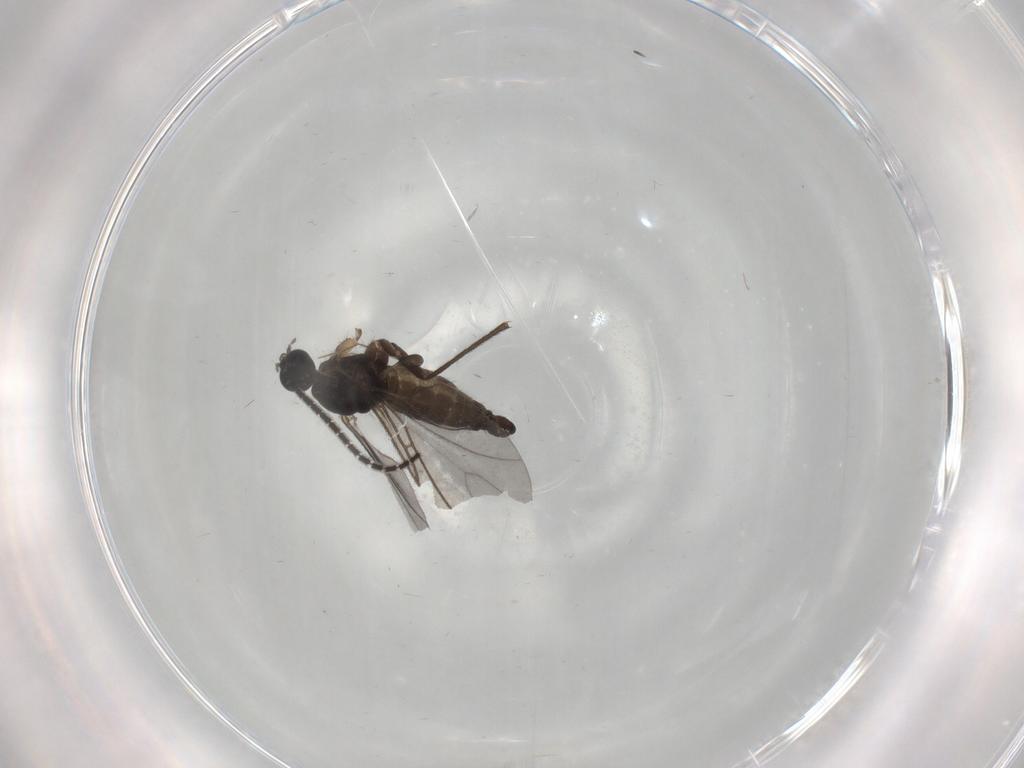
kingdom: Animalia
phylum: Arthropoda
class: Insecta
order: Diptera
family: Sciaridae
